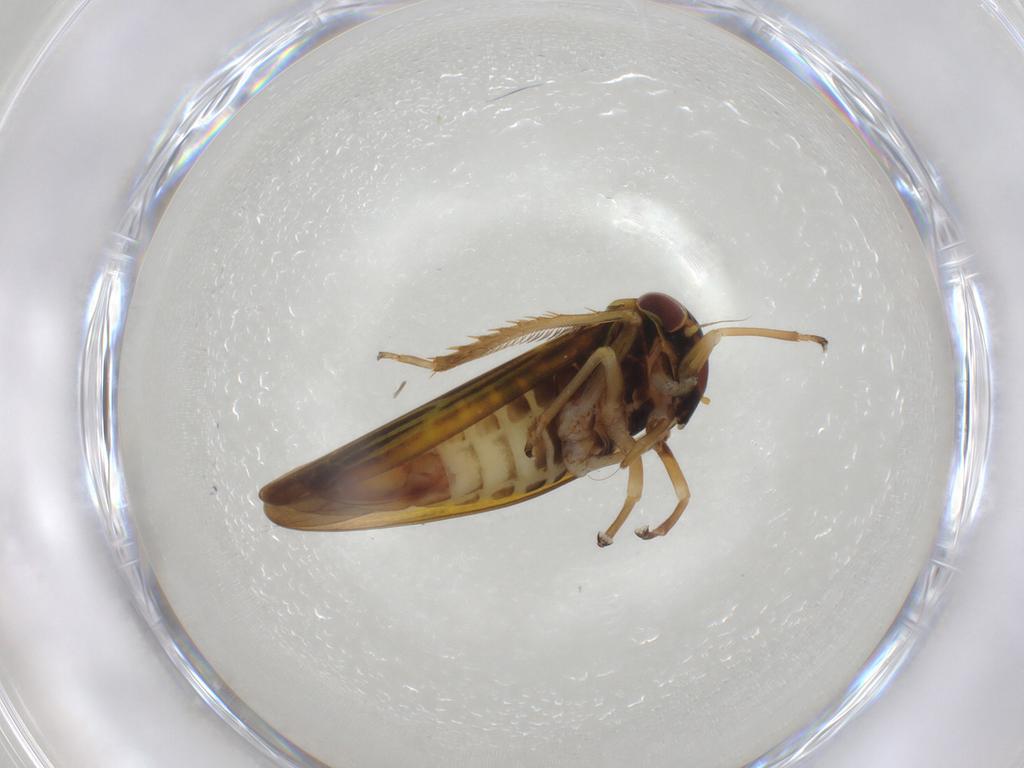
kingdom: Animalia
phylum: Arthropoda
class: Insecta
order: Hemiptera
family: Cicadellidae
